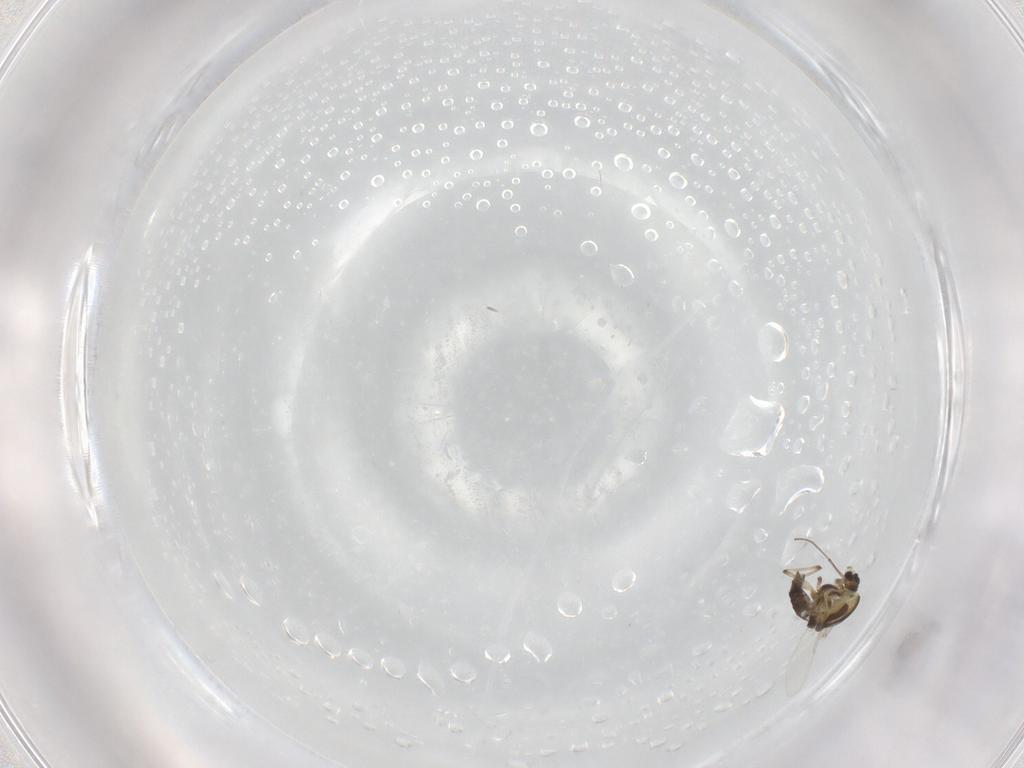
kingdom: Animalia
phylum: Arthropoda
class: Insecta
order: Diptera
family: Chironomidae
